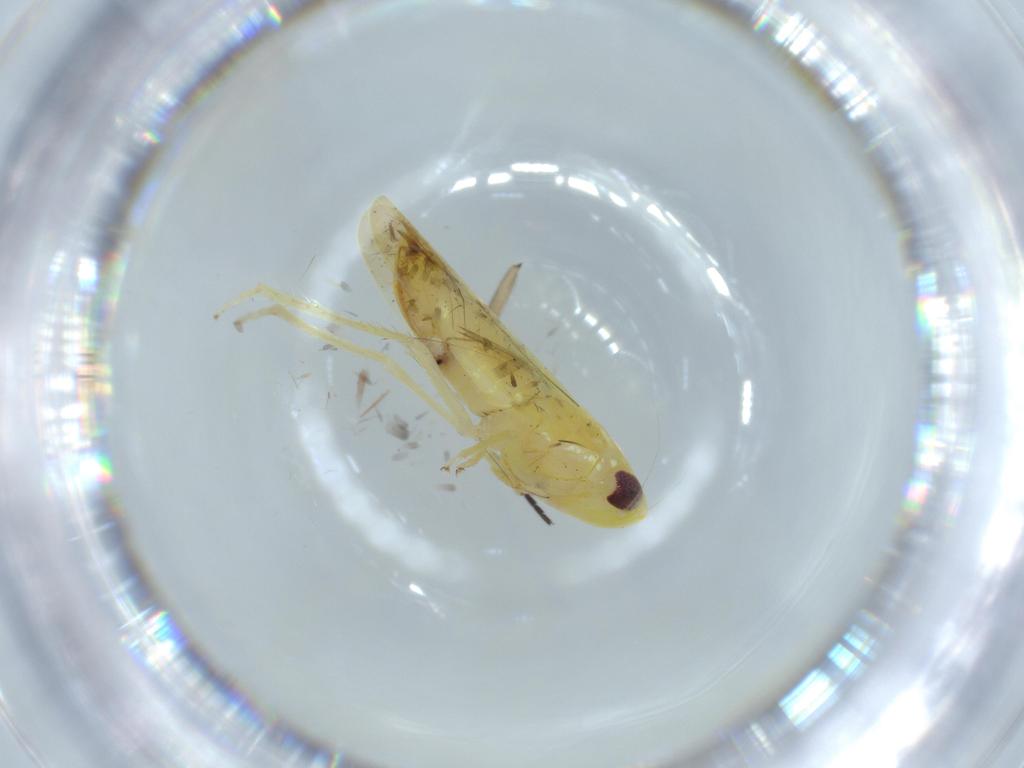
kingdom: Animalia
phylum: Arthropoda
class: Insecta
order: Hemiptera
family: Cicadellidae
